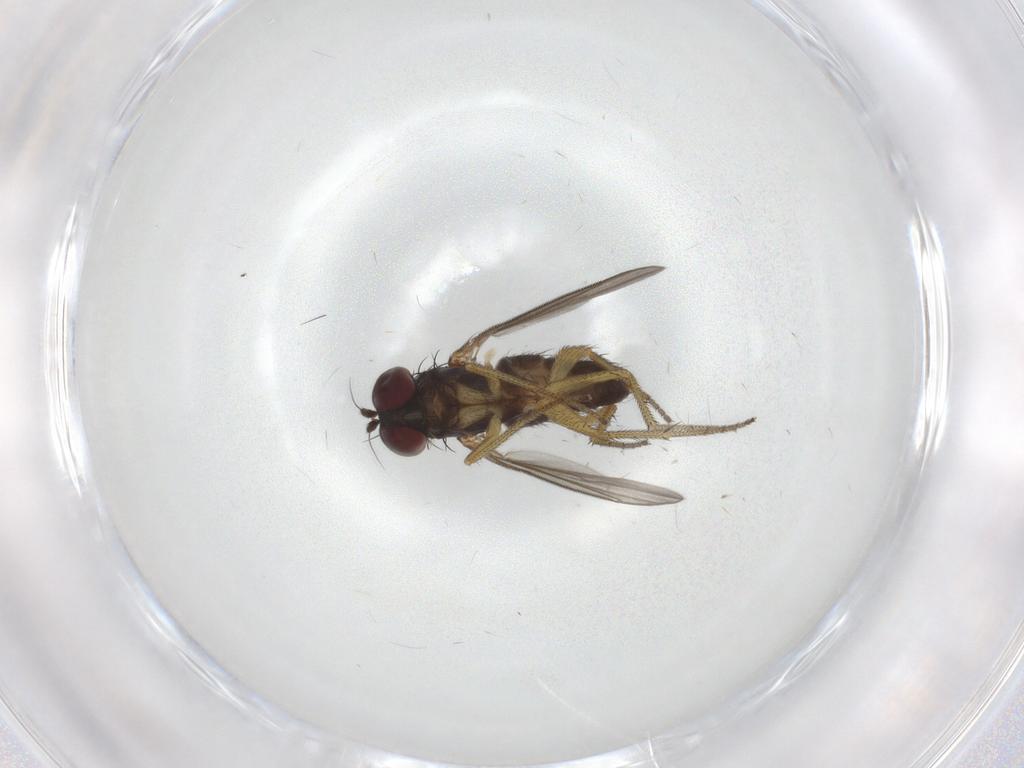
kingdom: Animalia
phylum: Arthropoda
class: Insecta
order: Diptera
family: Dolichopodidae
